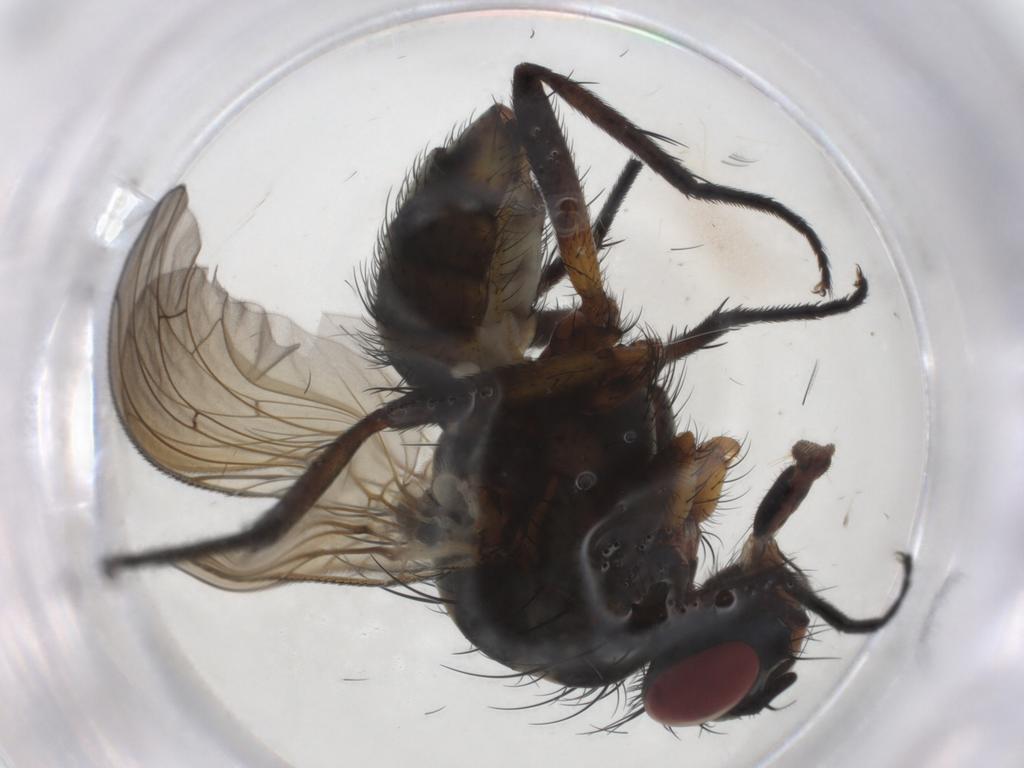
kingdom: Animalia
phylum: Arthropoda
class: Insecta
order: Diptera
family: Anthomyiidae
